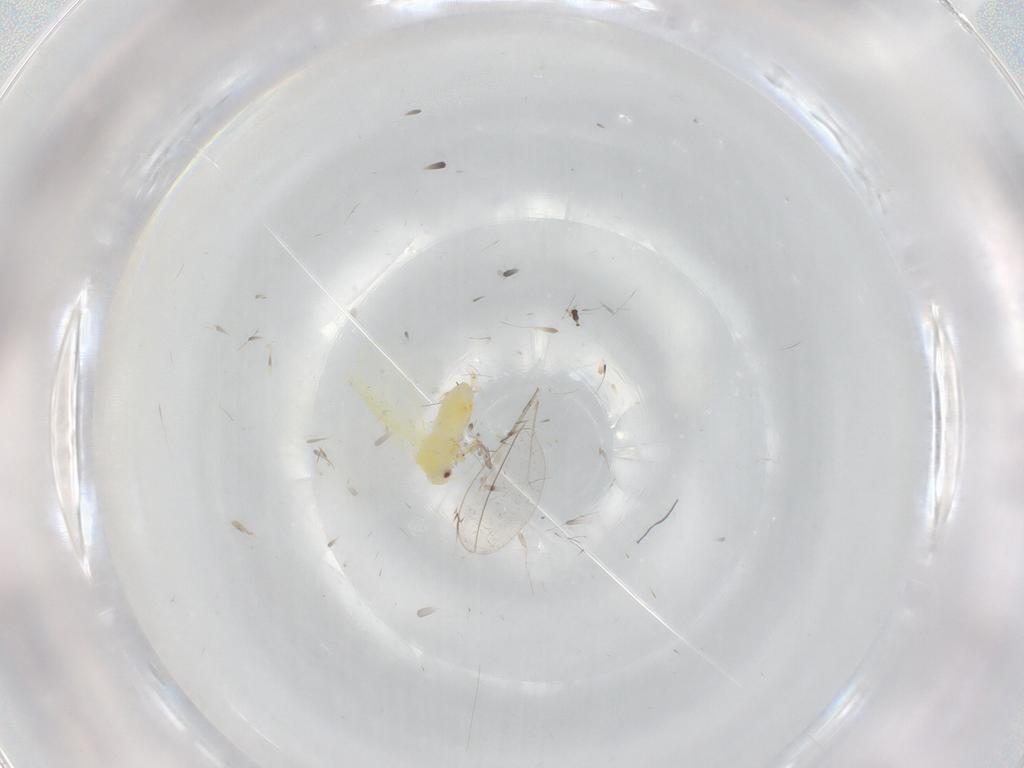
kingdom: Animalia
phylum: Arthropoda
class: Insecta
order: Hemiptera
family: Aleyrodidae
